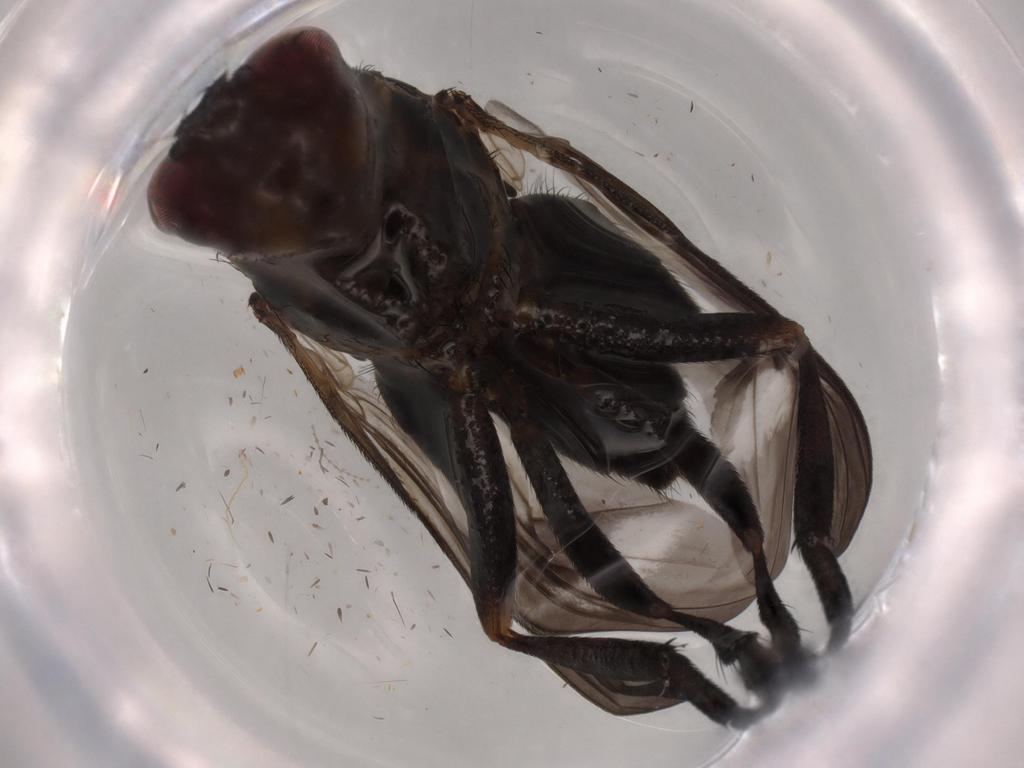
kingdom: Animalia
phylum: Arthropoda
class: Insecta
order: Diptera
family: Calliphoridae
